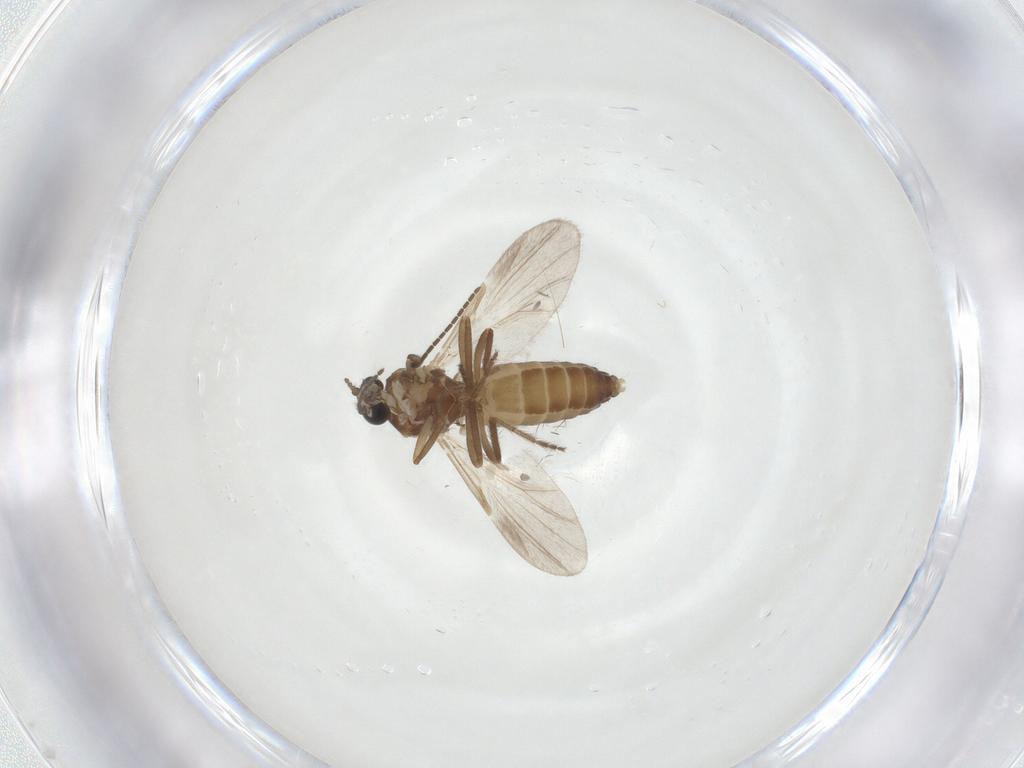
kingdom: Animalia
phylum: Arthropoda
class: Insecta
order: Diptera
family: Ceratopogonidae
